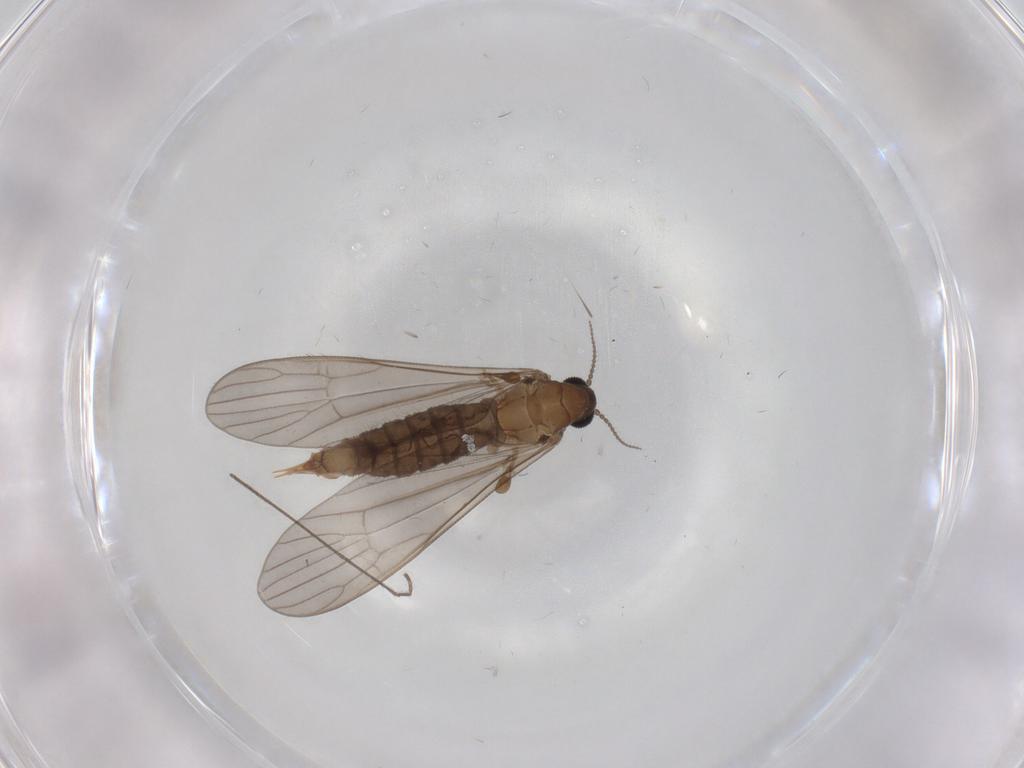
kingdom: Animalia
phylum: Arthropoda
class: Insecta
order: Diptera
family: Limoniidae
